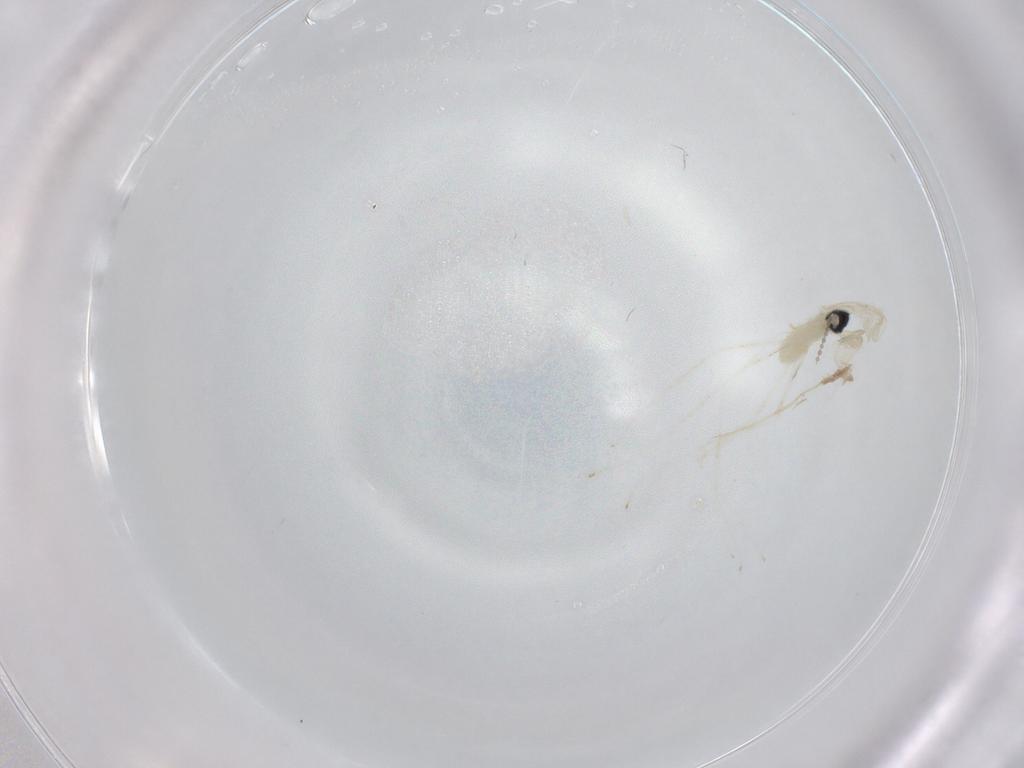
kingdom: Animalia
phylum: Arthropoda
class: Insecta
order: Diptera
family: Cecidomyiidae
